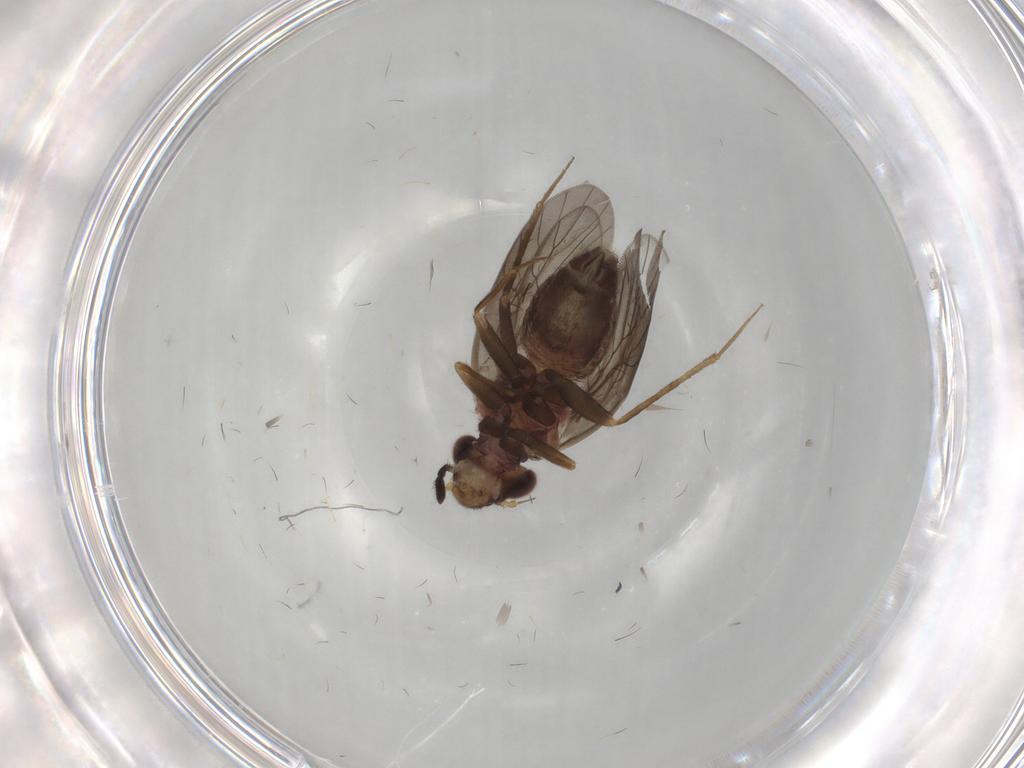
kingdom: Animalia
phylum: Arthropoda
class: Insecta
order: Psocodea
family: Lepidopsocidae
